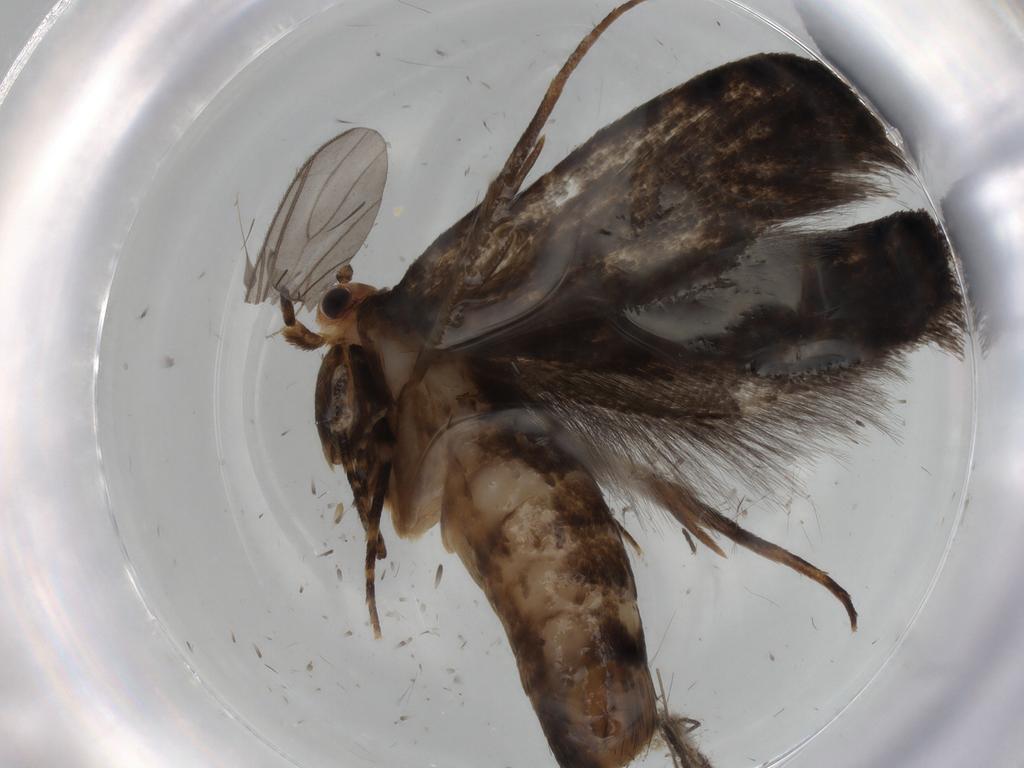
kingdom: Animalia
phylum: Arthropoda
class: Insecta
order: Lepidoptera
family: Tineidae
